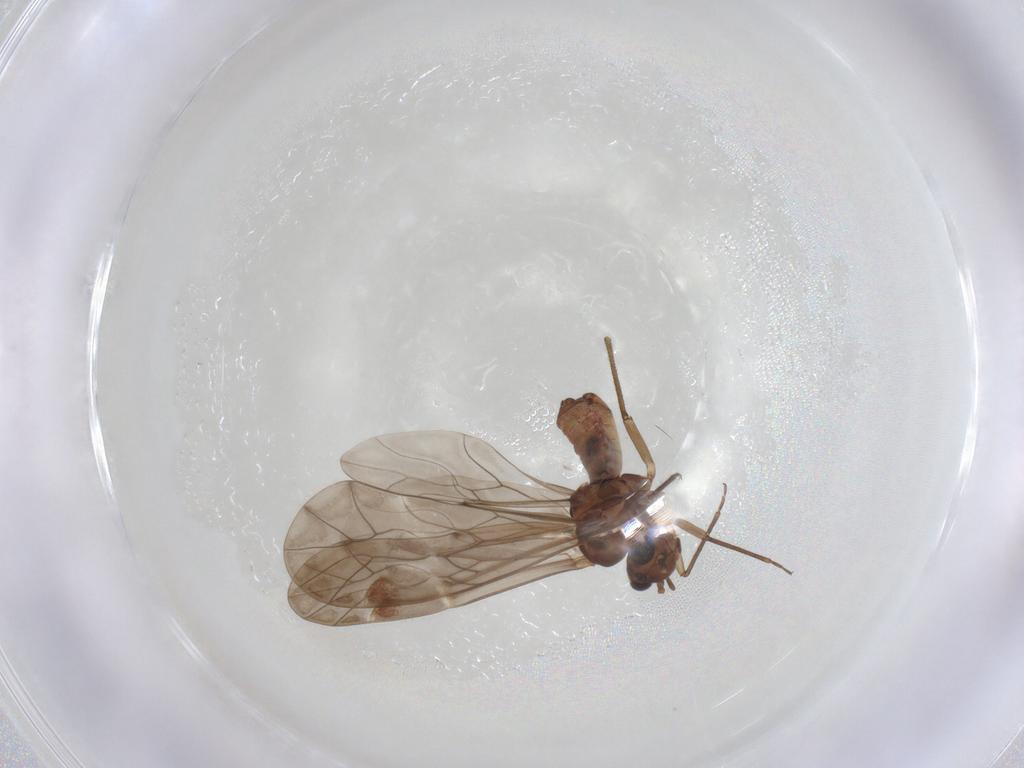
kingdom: Animalia
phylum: Arthropoda
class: Insecta
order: Psocodea
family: Peripsocidae
